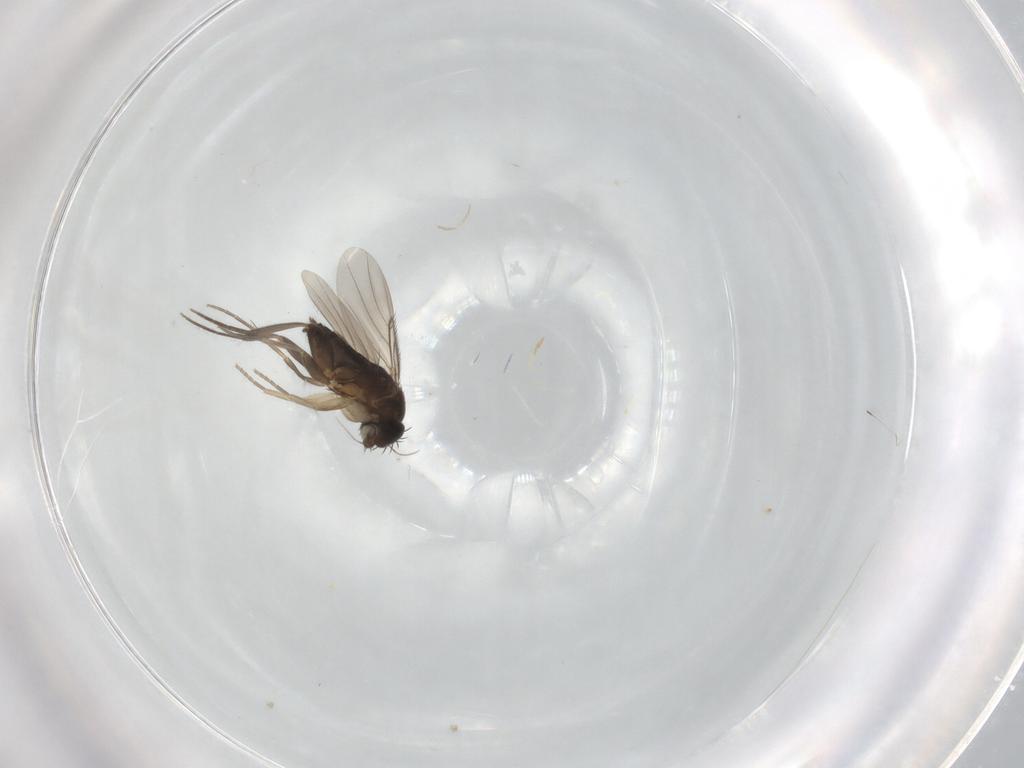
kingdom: Animalia
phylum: Arthropoda
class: Insecta
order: Diptera
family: Phoridae
